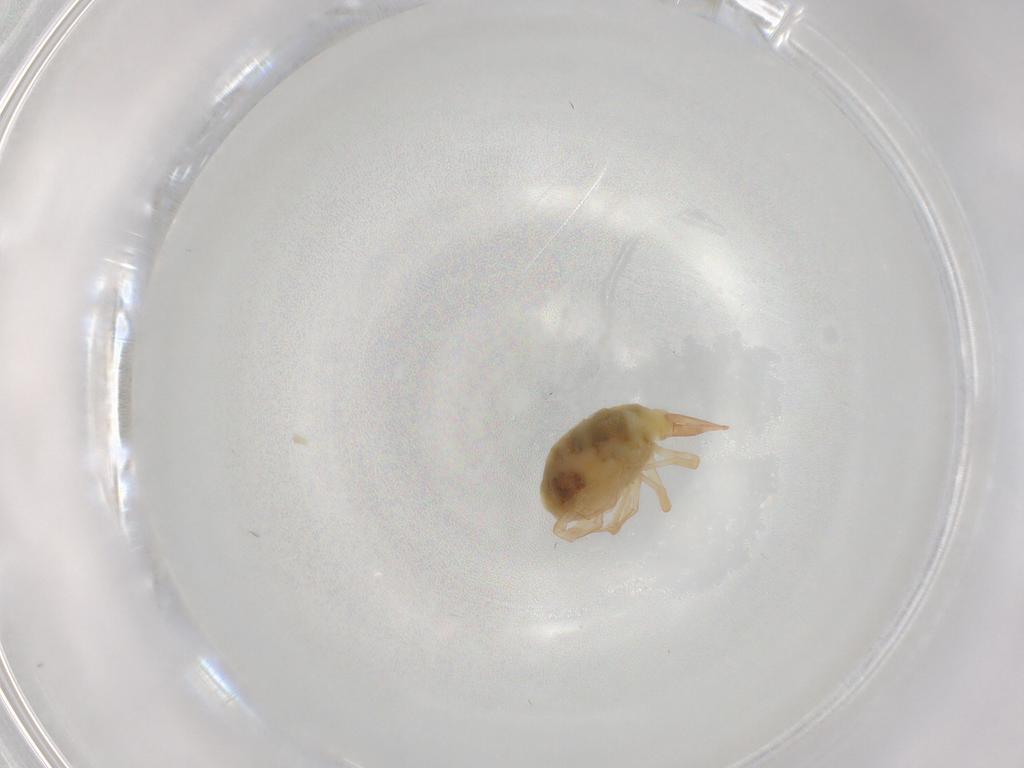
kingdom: Animalia
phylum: Arthropoda
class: Arachnida
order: Trombidiformes
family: Bdellidae
